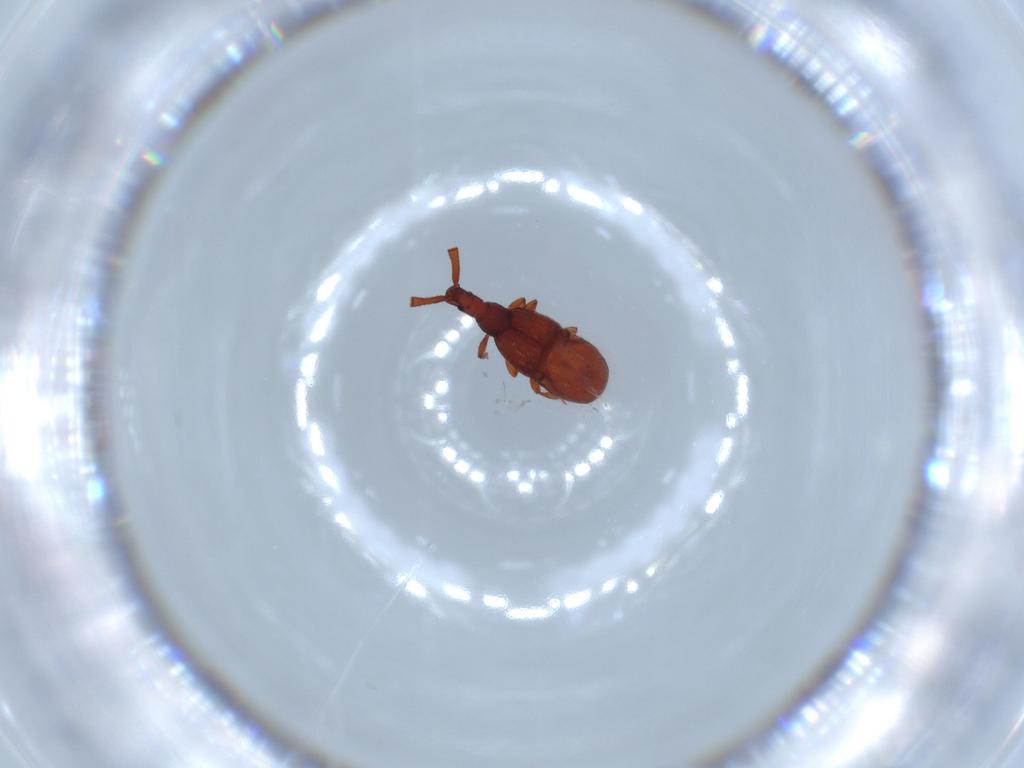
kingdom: Animalia
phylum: Arthropoda
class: Insecta
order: Coleoptera
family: Staphylinidae
